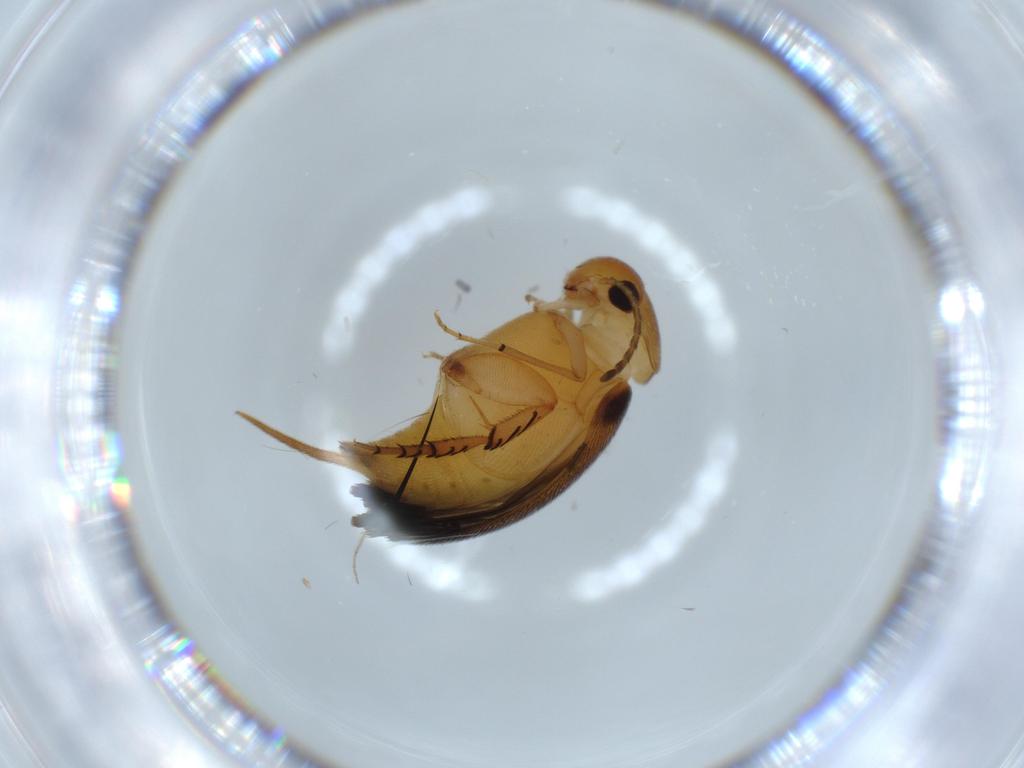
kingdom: Animalia
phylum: Arthropoda
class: Insecta
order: Coleoptera
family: Mordellidae
